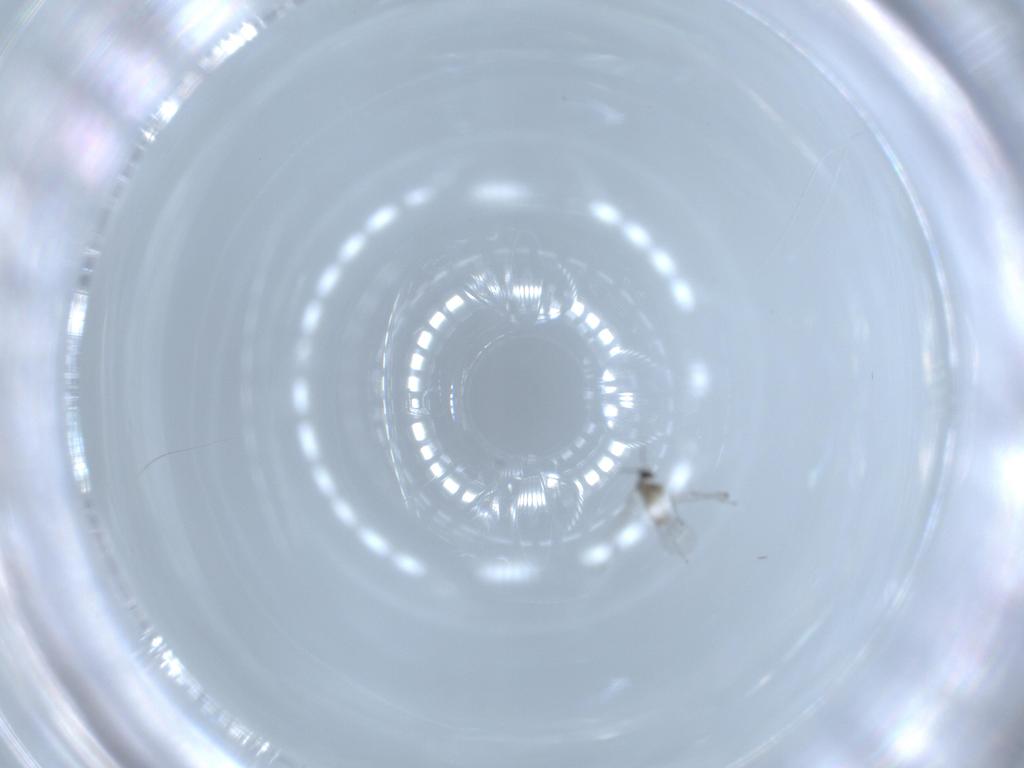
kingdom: Animalia
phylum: Arthropoda
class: Insecta
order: Diptera
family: Cecidomyiidae
